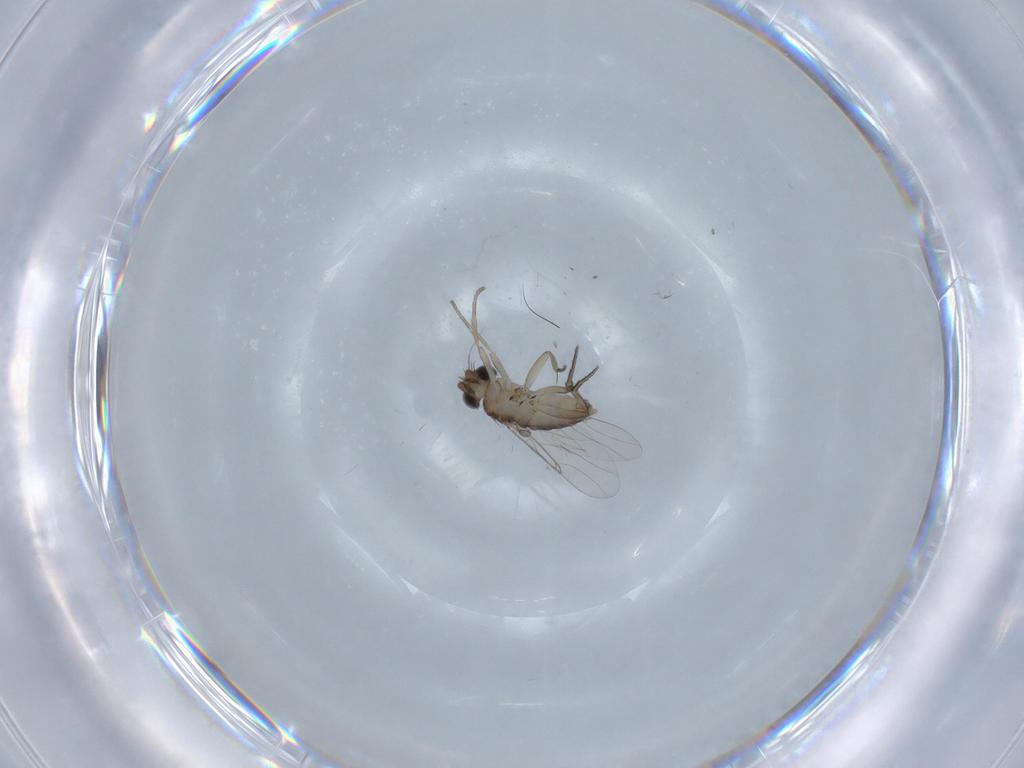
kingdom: Animalia
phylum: Arthropoda
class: Insecta
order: Diptera
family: Phoridae
